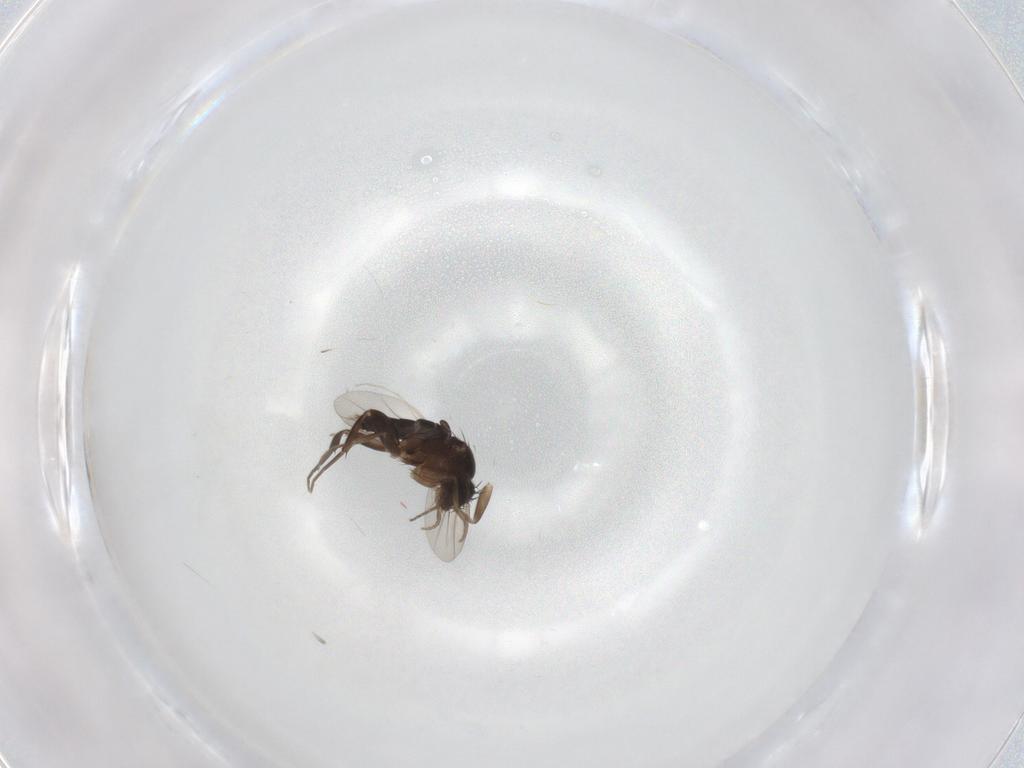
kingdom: Animalia
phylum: Arthropoda
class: Insecta
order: Diptera
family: Cecidomyiidae
